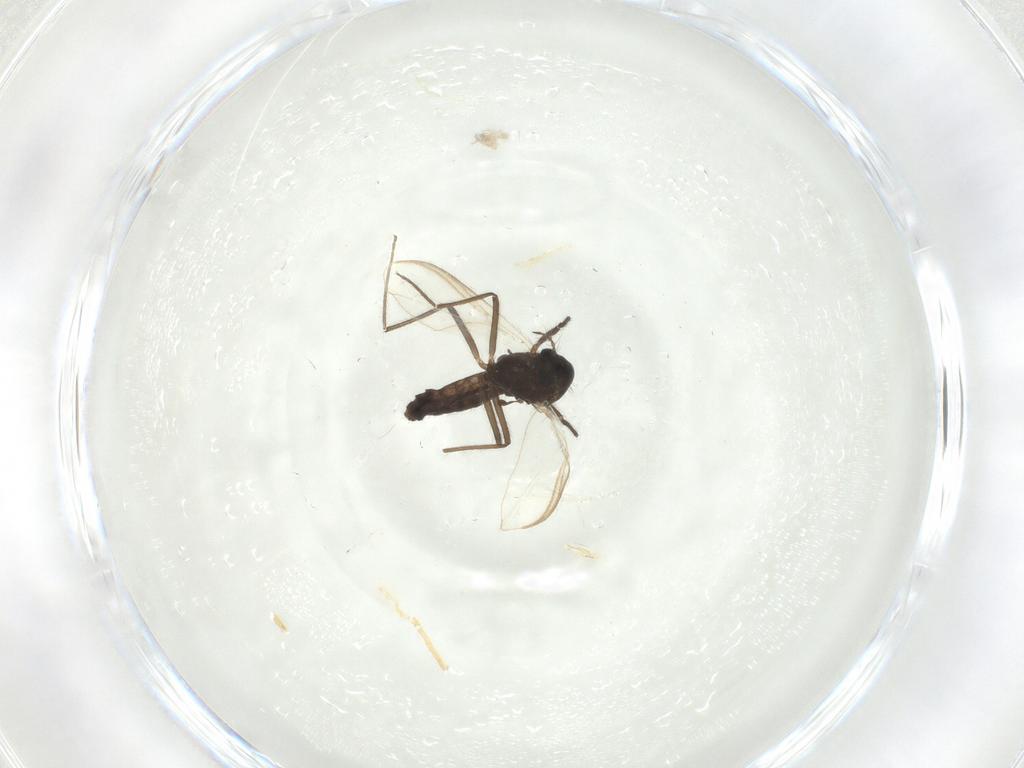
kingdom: Animalia
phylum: Arthropoda
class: Insecta
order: Diptera
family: Chironomidae
